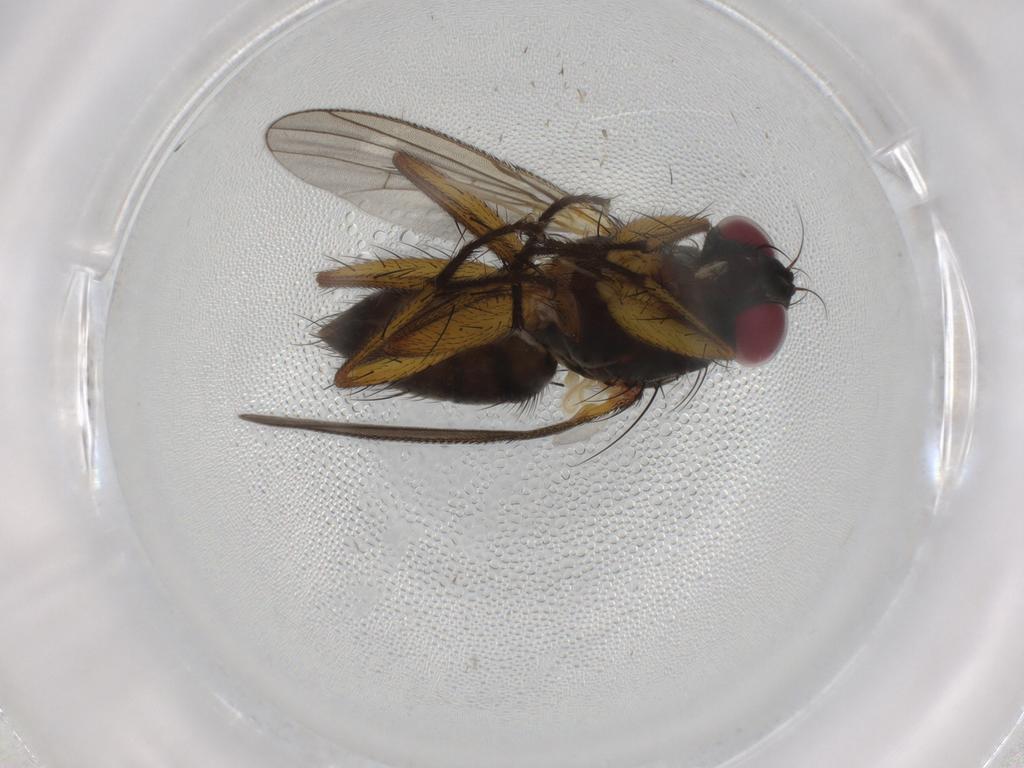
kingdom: Animalia
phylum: Arthropoda
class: Insecta
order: Diptera
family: Muscidae
